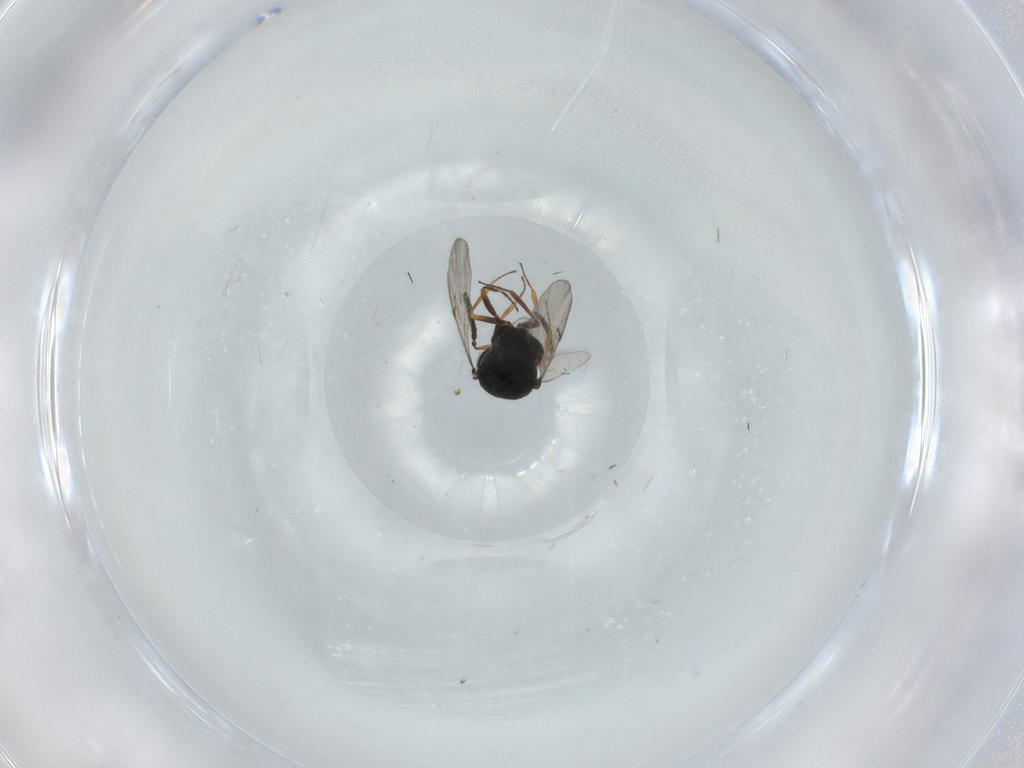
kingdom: Animalia
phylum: Arthropoda
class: Insecta
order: Hymenoptera
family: Scelionidae
